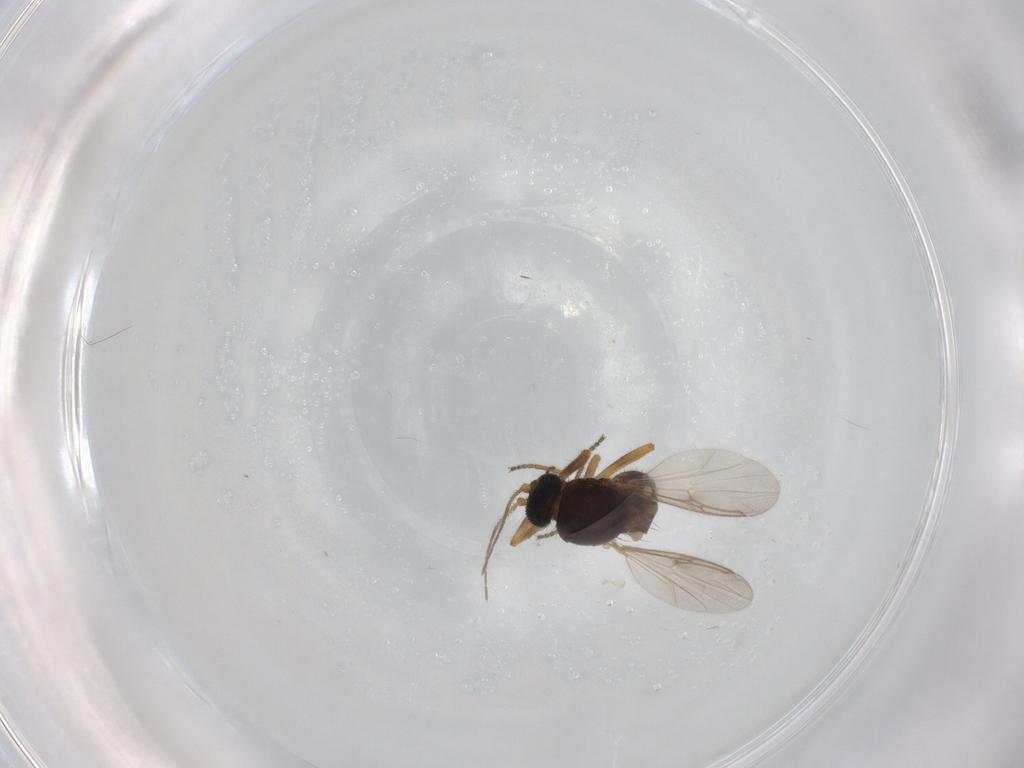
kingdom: Animalia
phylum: Arthropoda
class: Insecta
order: Diptera
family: Ceratopogonidae
